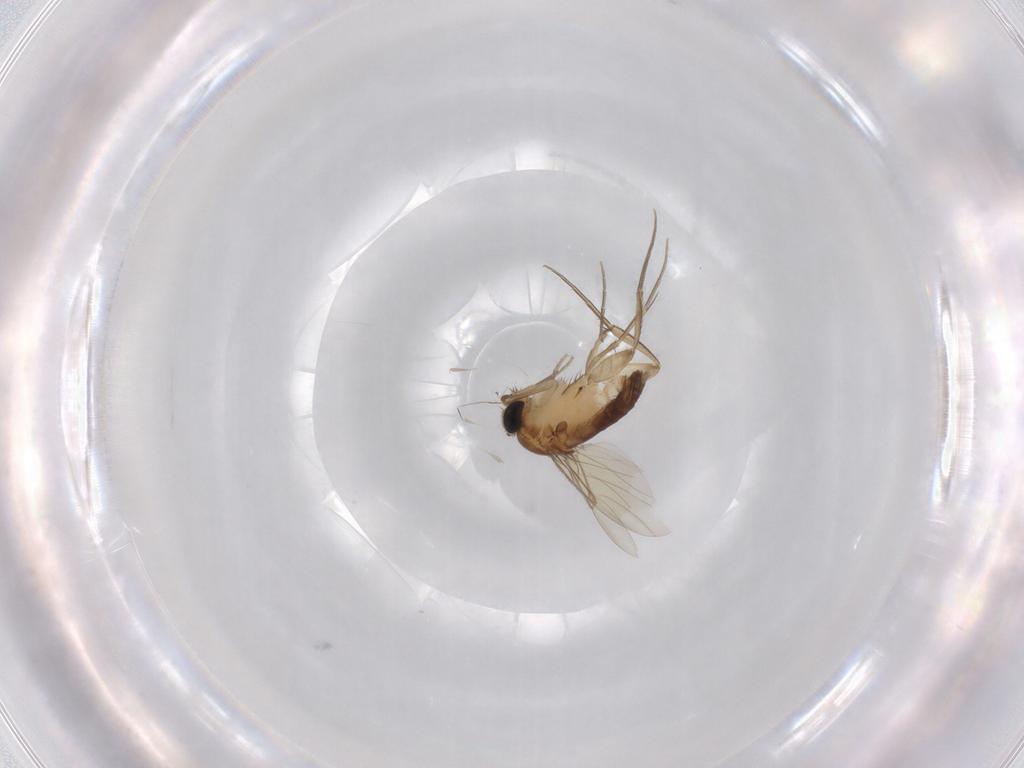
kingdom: Animalia
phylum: Arthropoda
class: Insecta
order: Diptera
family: Phoridae
